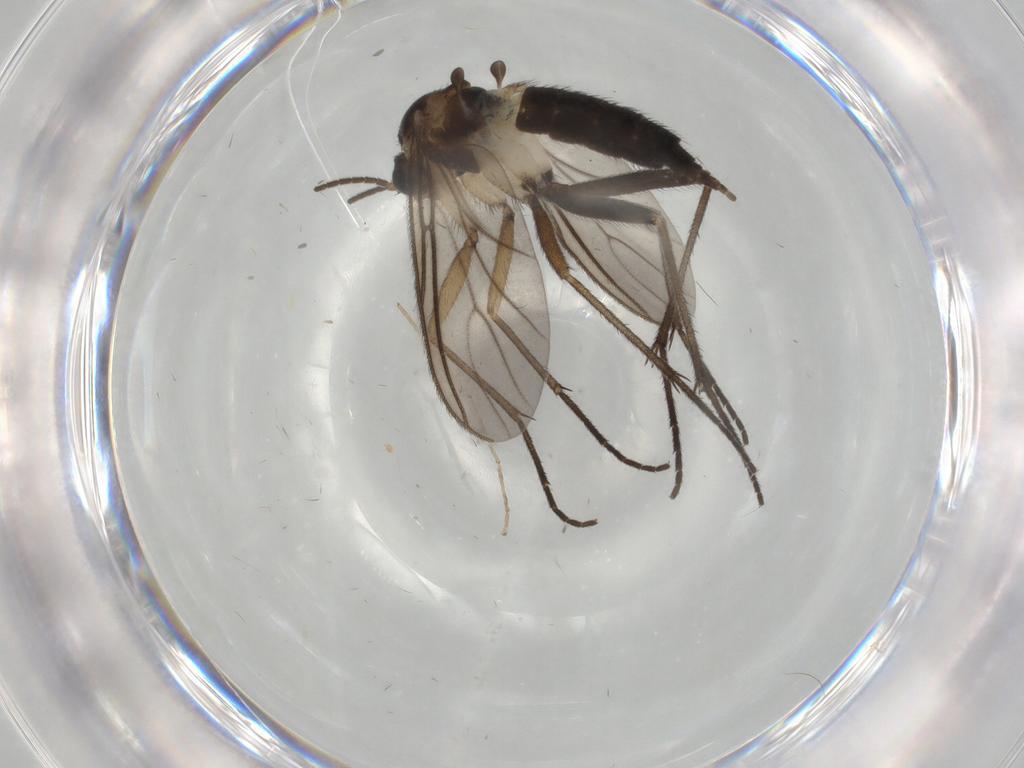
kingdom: Animalia
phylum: Arthropoda
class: Insecta
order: Diptera
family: Sciaridae
